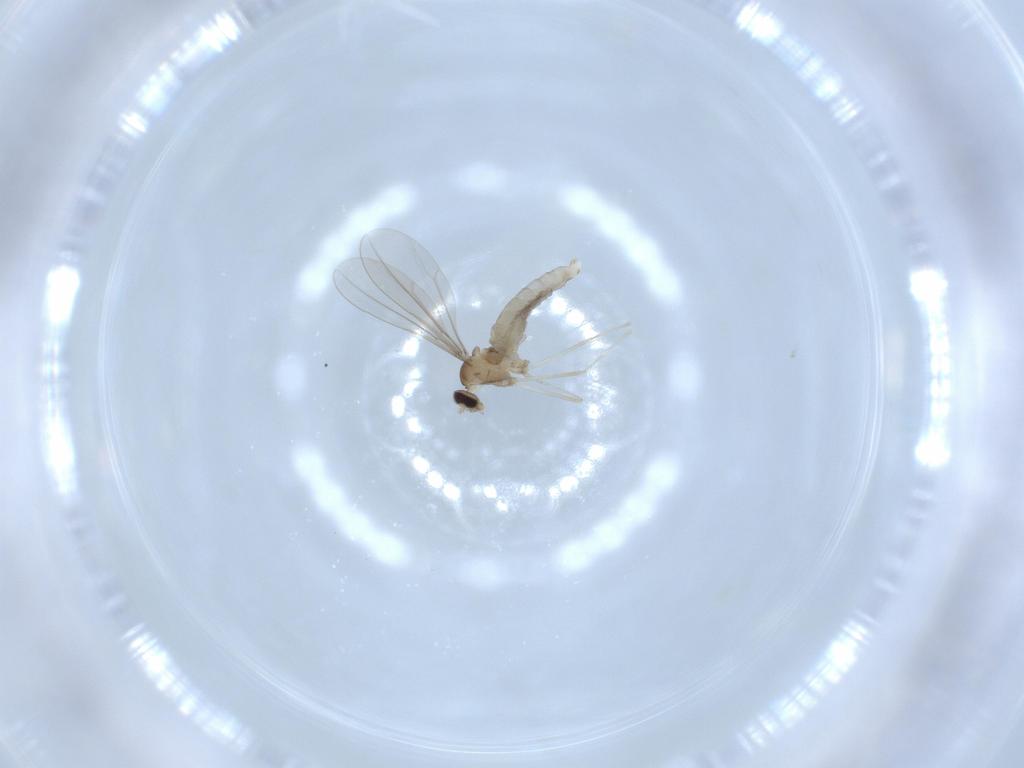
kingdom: Animalia
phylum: Arthropoda
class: Insecta
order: Diptera
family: Cecidomyiidae
